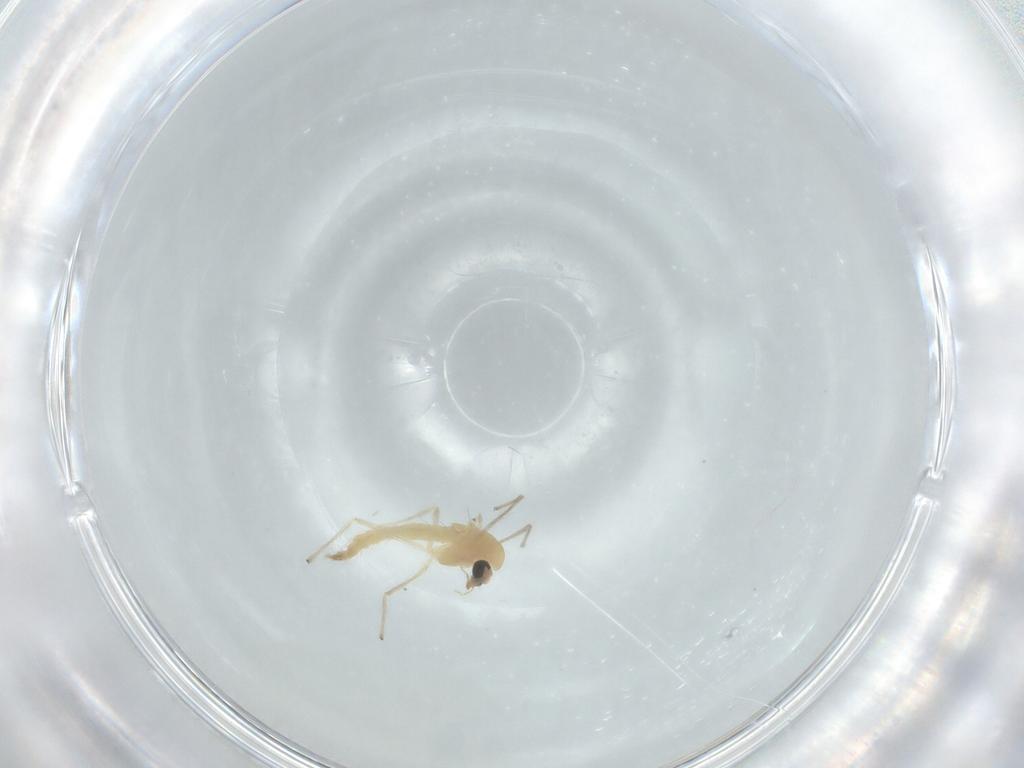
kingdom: Animalia
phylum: Arthropoda
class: Insecta
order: Diptera
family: Chironomidae
